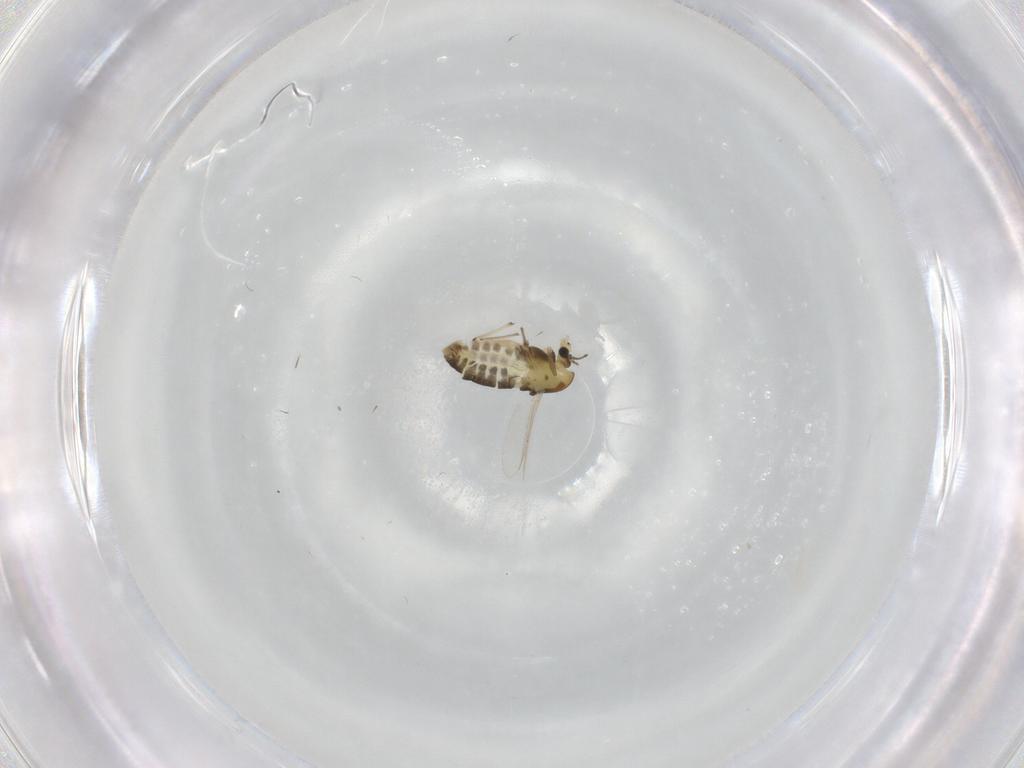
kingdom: Animalia
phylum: Arthropoda
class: Insecta
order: Diptera
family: Chironomidae
